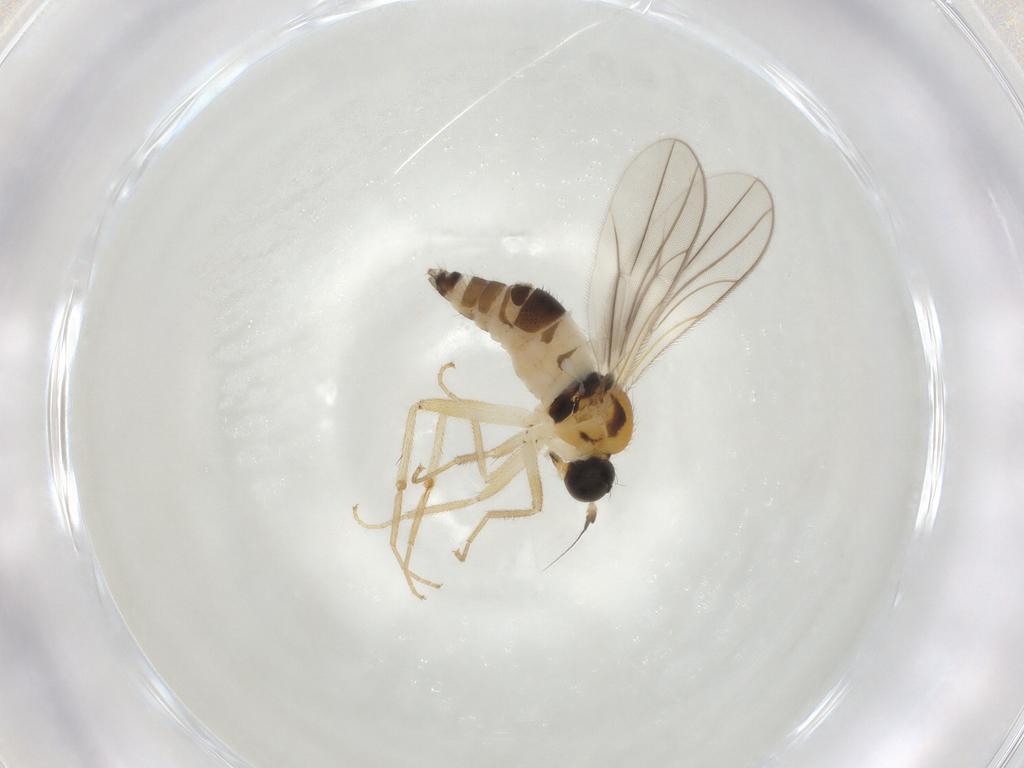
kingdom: Animalia
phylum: Arthropoda
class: Insecta
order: Diptera
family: Hybotidae
